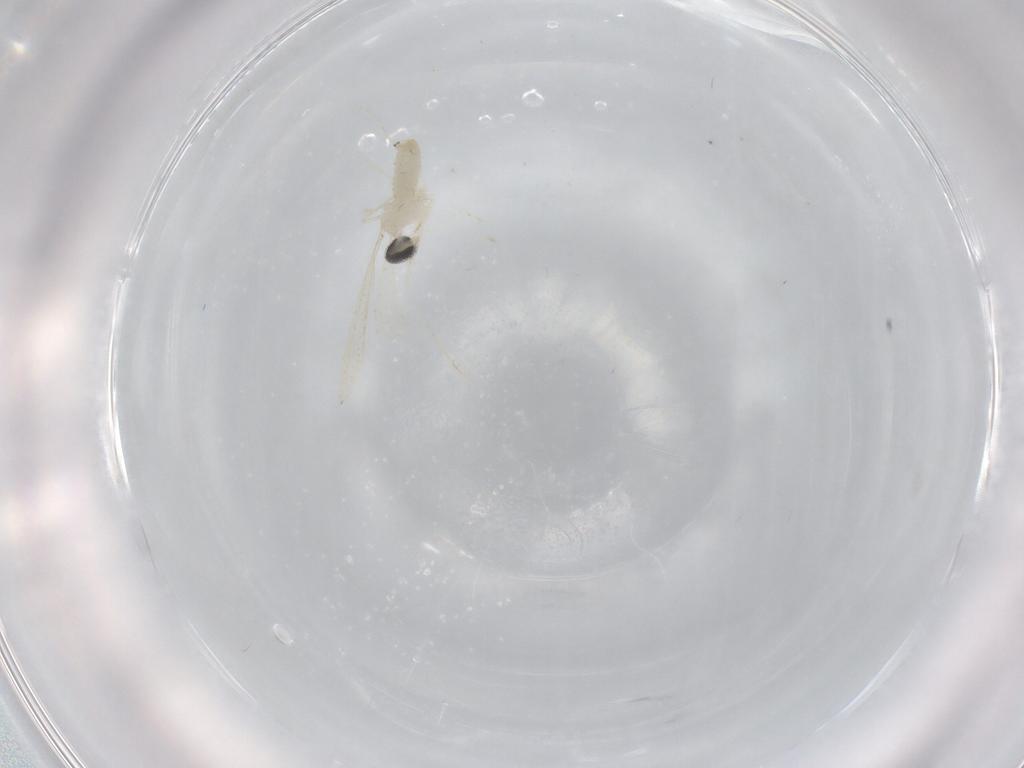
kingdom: Animalia
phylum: Arthropoda
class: Insecta
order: Diptera
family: Cecidomyiidae
